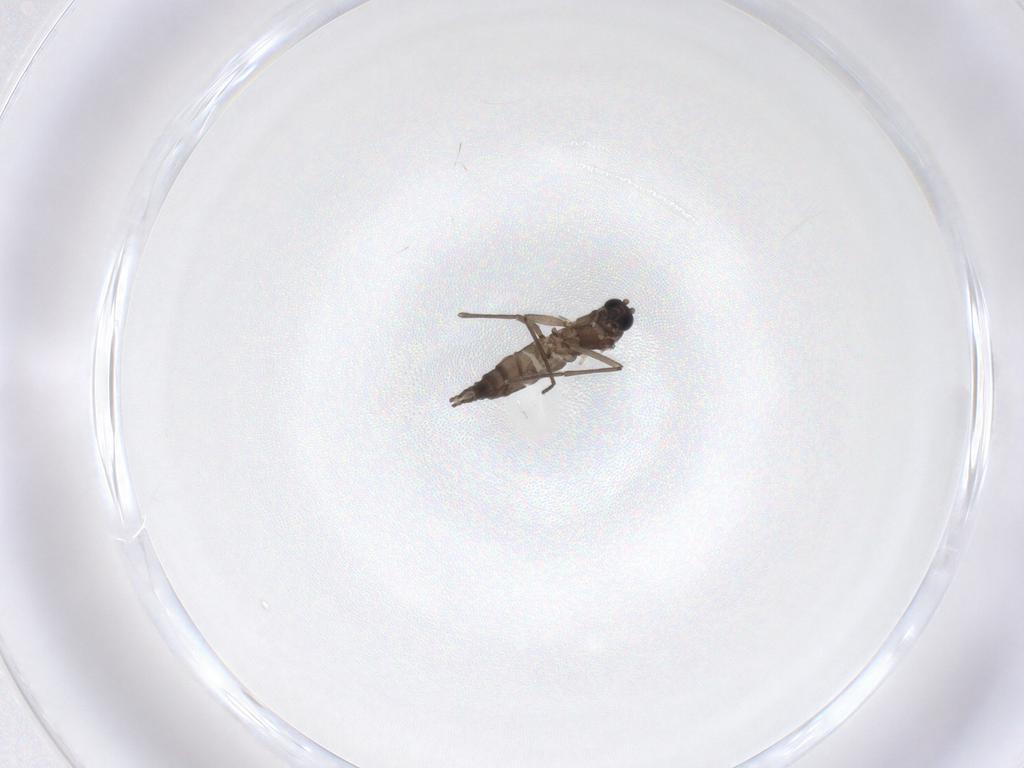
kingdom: Animalia
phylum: Arthropoda
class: Insecta
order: Diptera
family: Sciaridae
